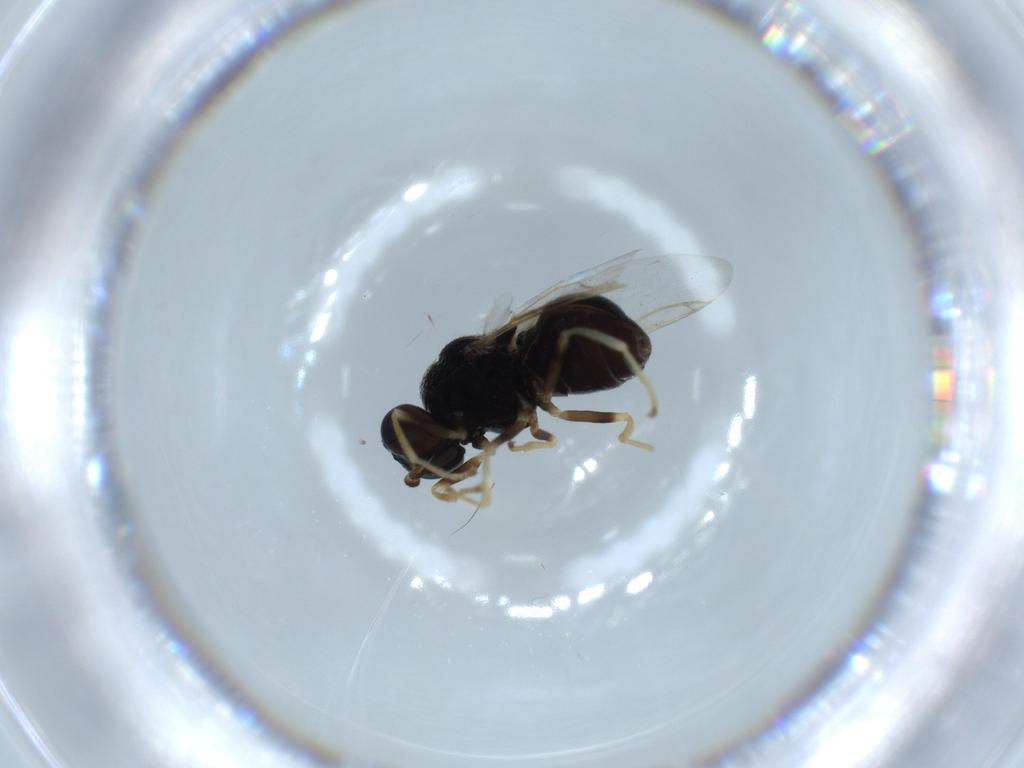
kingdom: Animalia
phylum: Arthropoda
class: Insecta
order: Diptera
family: Stratiomyidae
